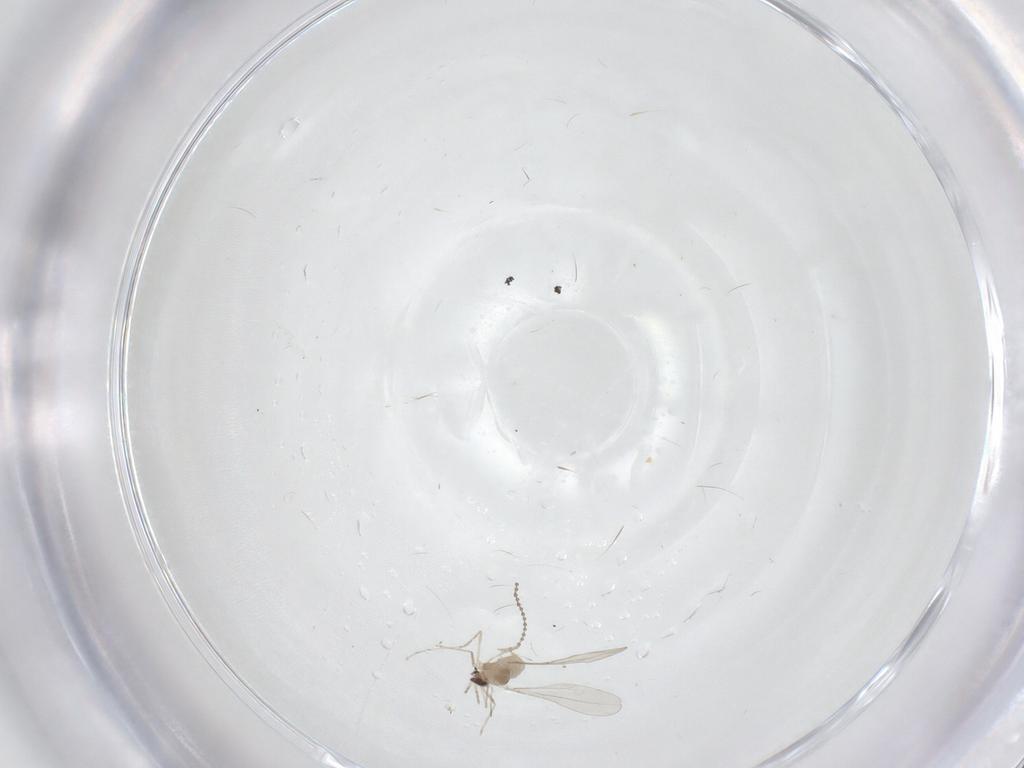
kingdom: Animalia
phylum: Arthropoda
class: Insecta
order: Diptera
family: Cecidomyiidae
